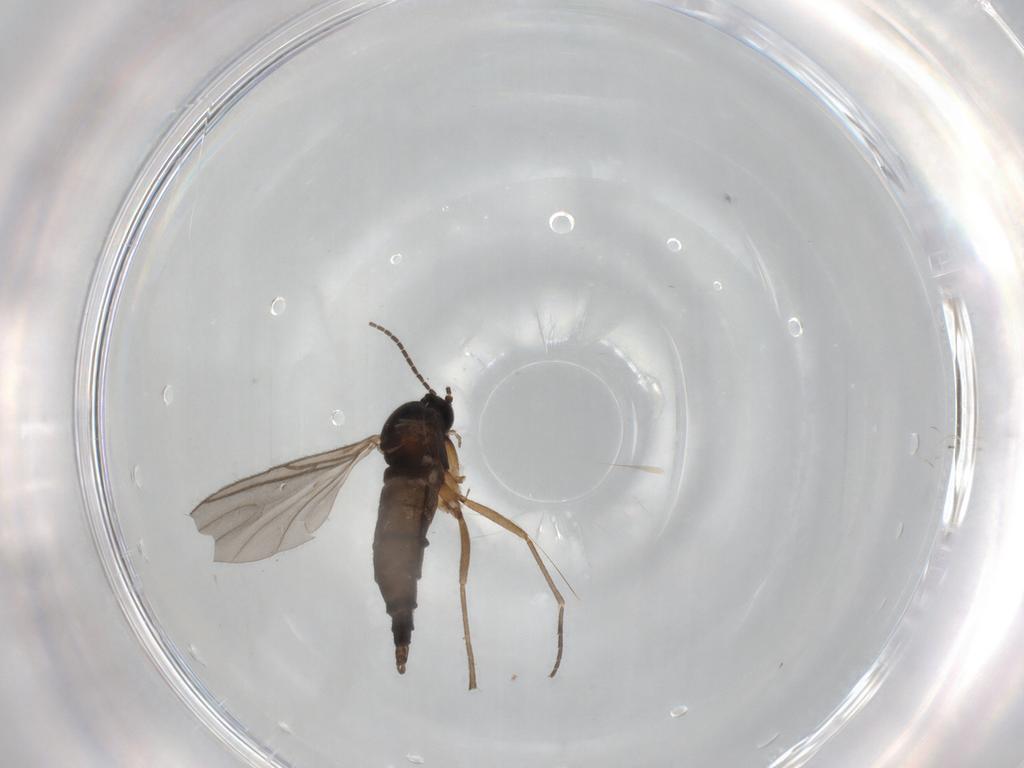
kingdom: Animalia
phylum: Arthropoda
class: Insecta
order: Diptera
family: Sciaridae
